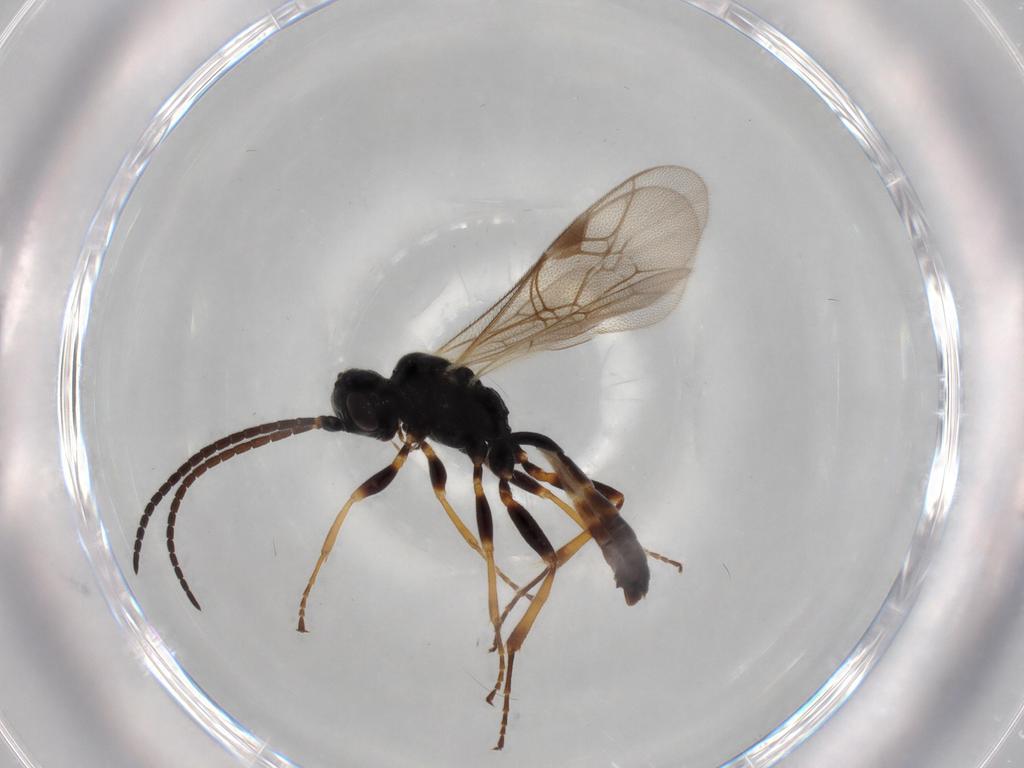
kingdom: Animalia
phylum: Arthropoda
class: Insecta
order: Hymenoptera
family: Ichneumonidae
